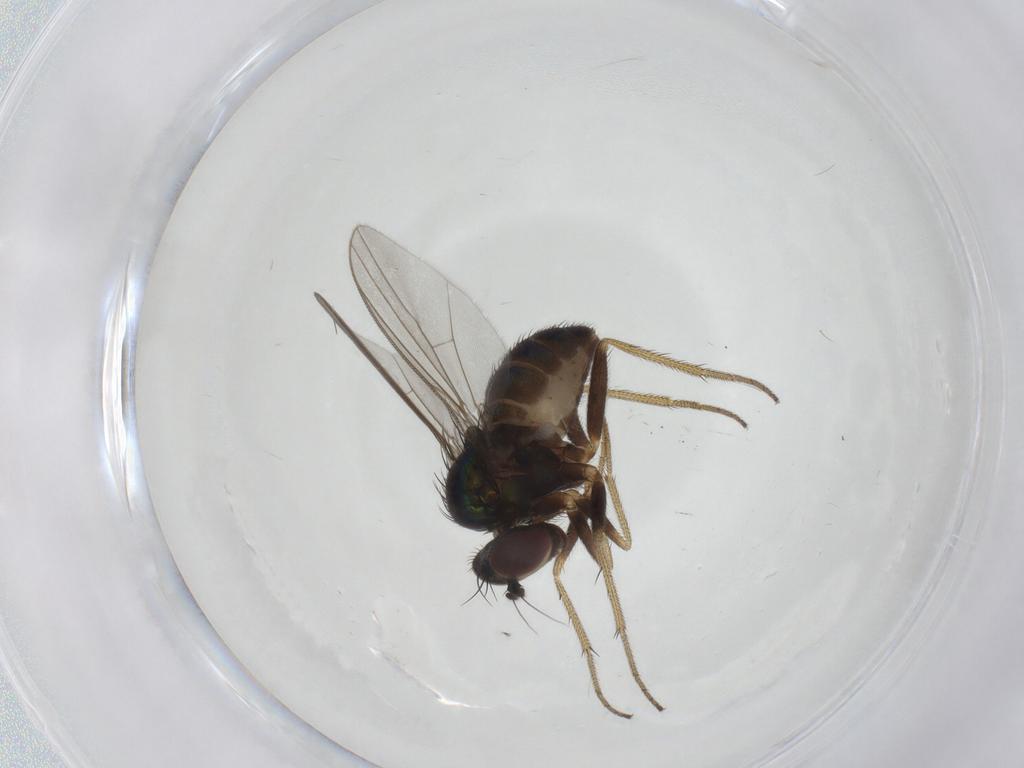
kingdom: Animalia
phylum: Arthropoda
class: Insecta
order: Diptera
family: Dolichopodidae
